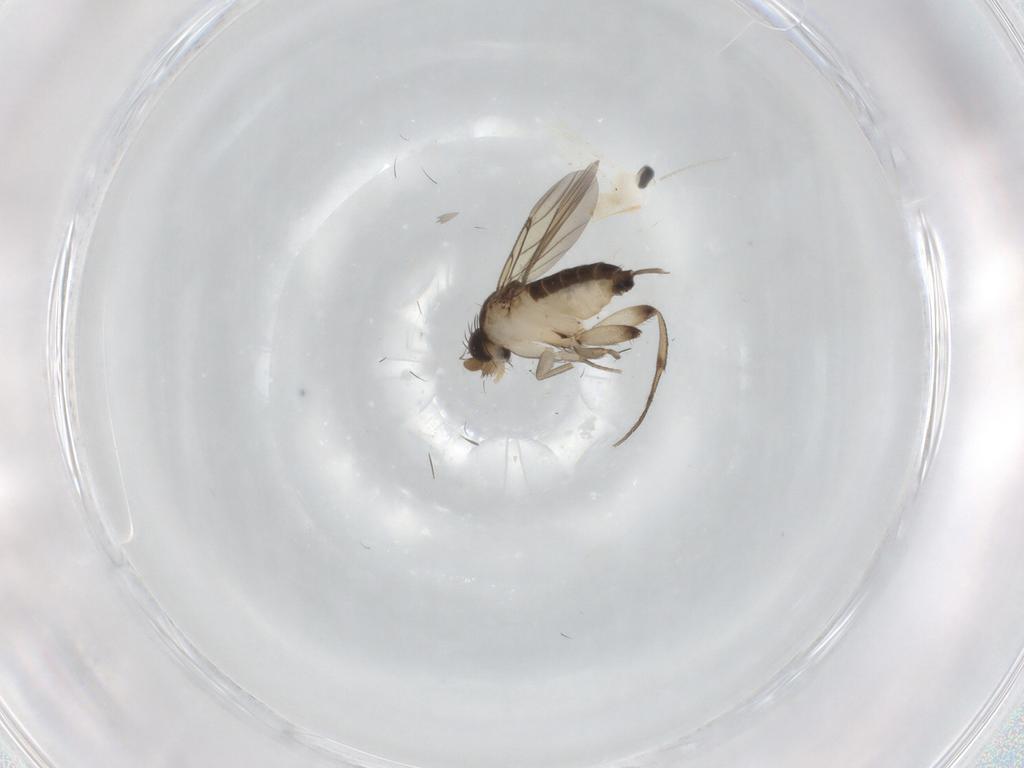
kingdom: Animalia
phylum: Arthropoda
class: Insecta
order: Diptera
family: Phoridae
